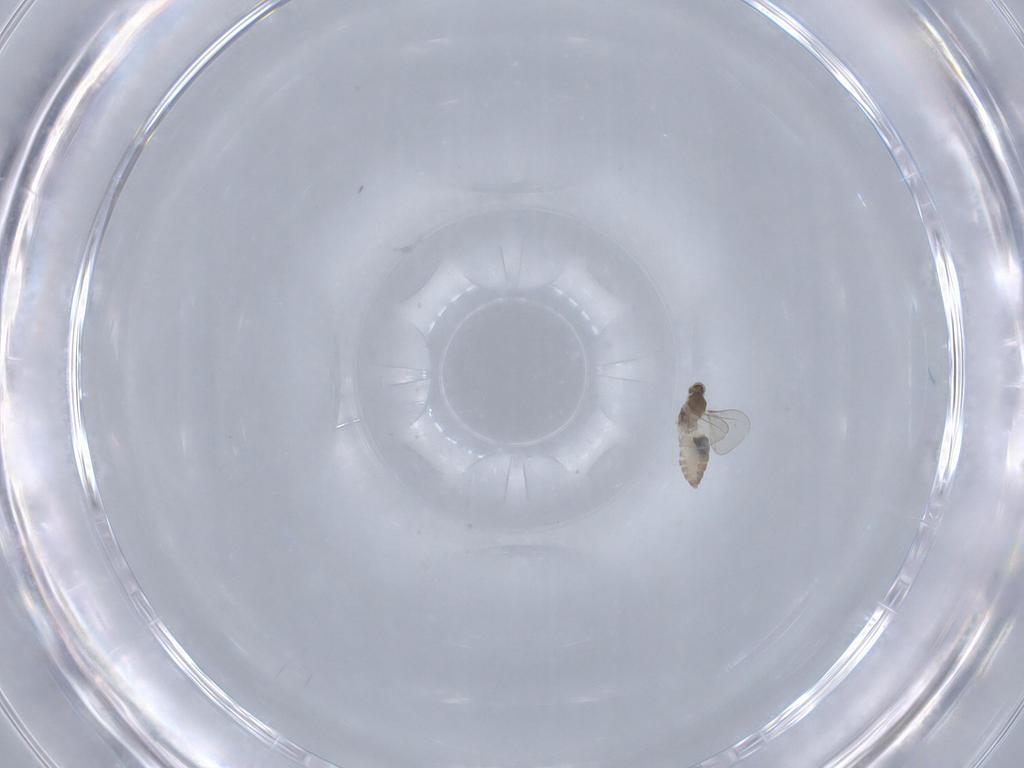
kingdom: Animalia
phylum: Arthropoda
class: Insecta
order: Diptera
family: Cecidomyiidae
